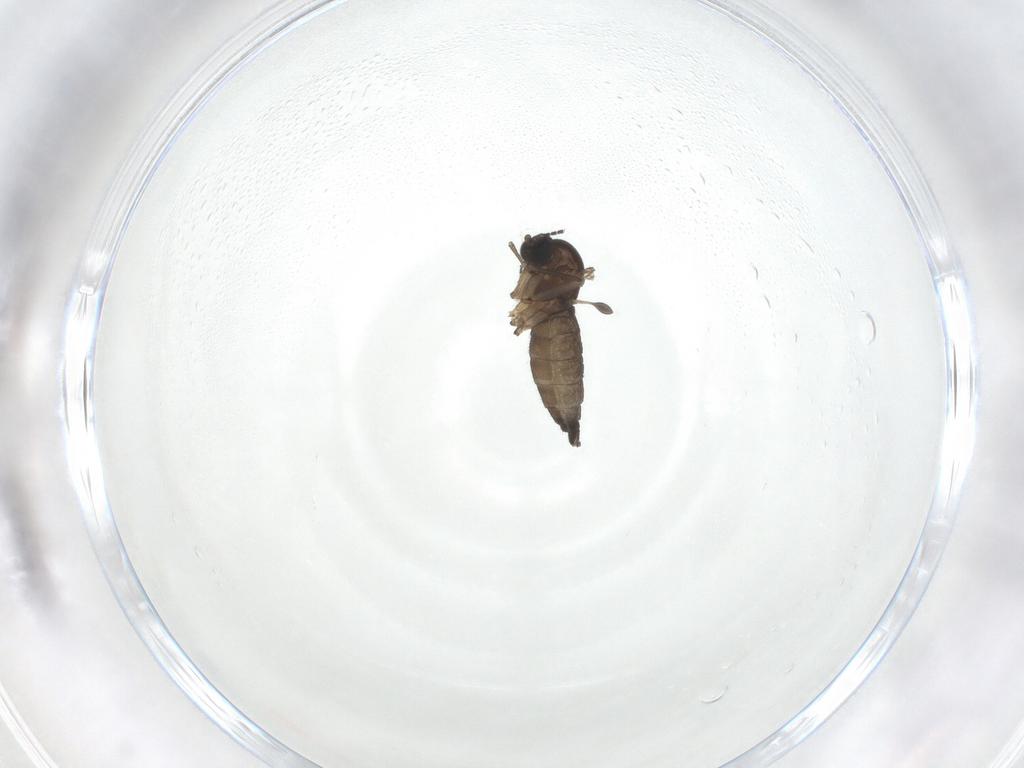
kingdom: Animalia
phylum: Arthropoda
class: Insecta
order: Diptera
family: Sciaridae
